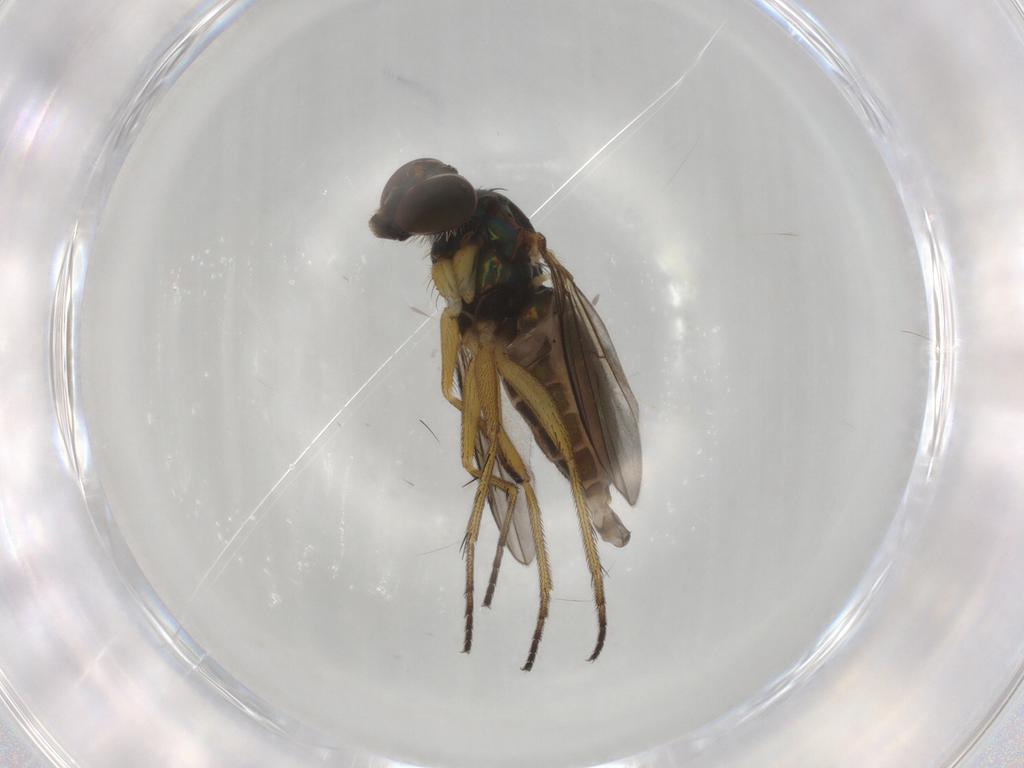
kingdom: Animalia
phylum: Arthropoda
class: Insecta
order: Diptera
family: Dolichopodidae
